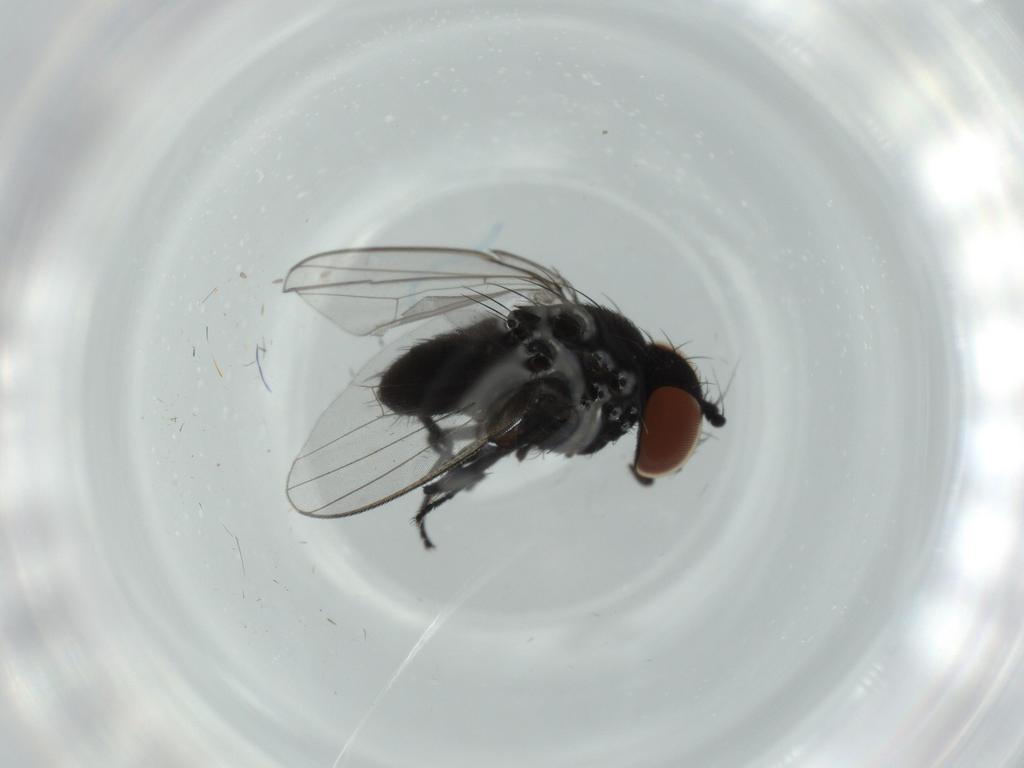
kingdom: Animalia
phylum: Arthropoda
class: Insecta
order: Diptera
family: Milichiidae
